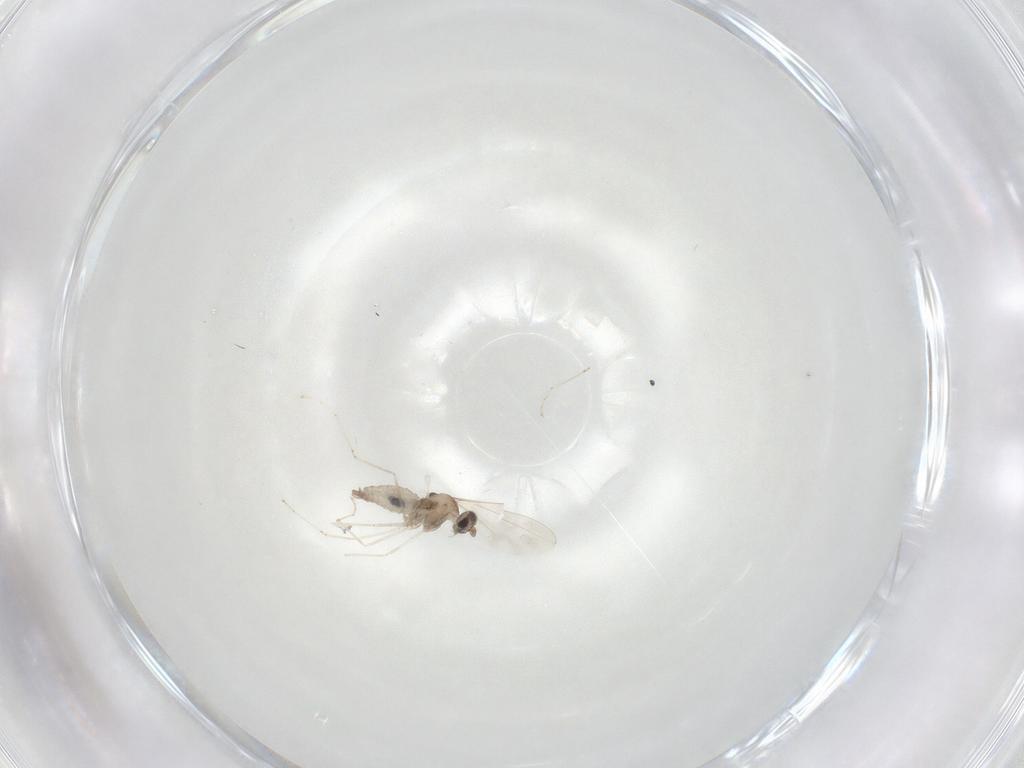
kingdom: Animalia
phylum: Arthropoda
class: Insecta
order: Diptera
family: Cecidomyiidae
